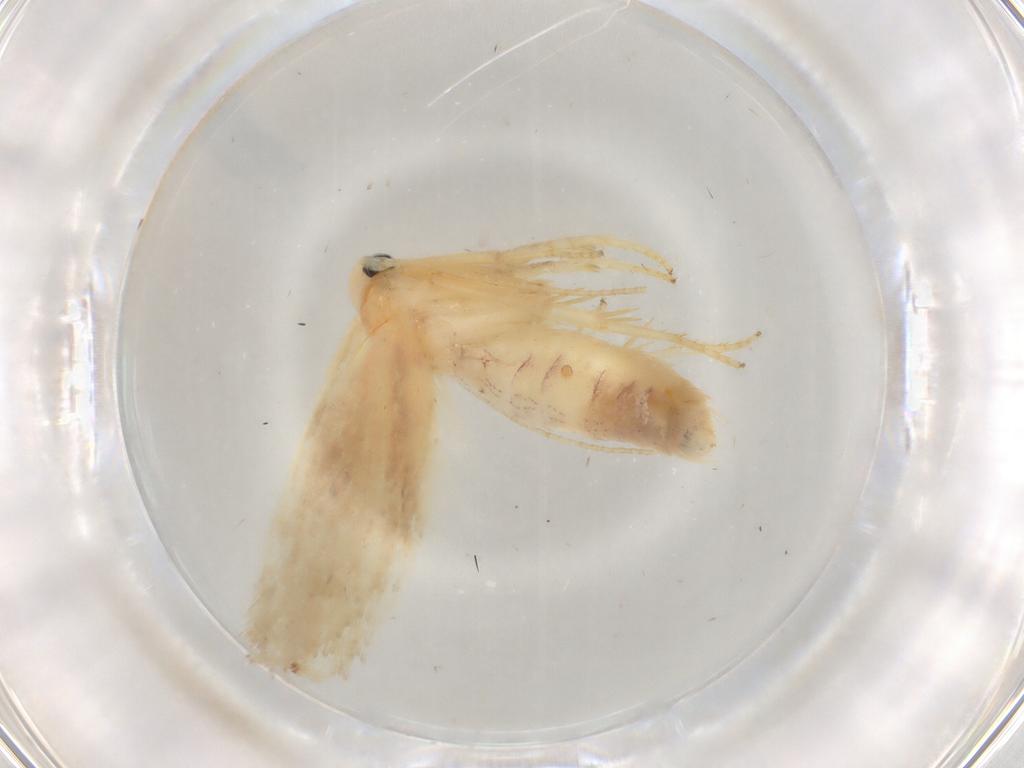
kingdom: Animalia
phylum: Arthropoda
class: Insecta
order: Lepidoptera
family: Geometridae
